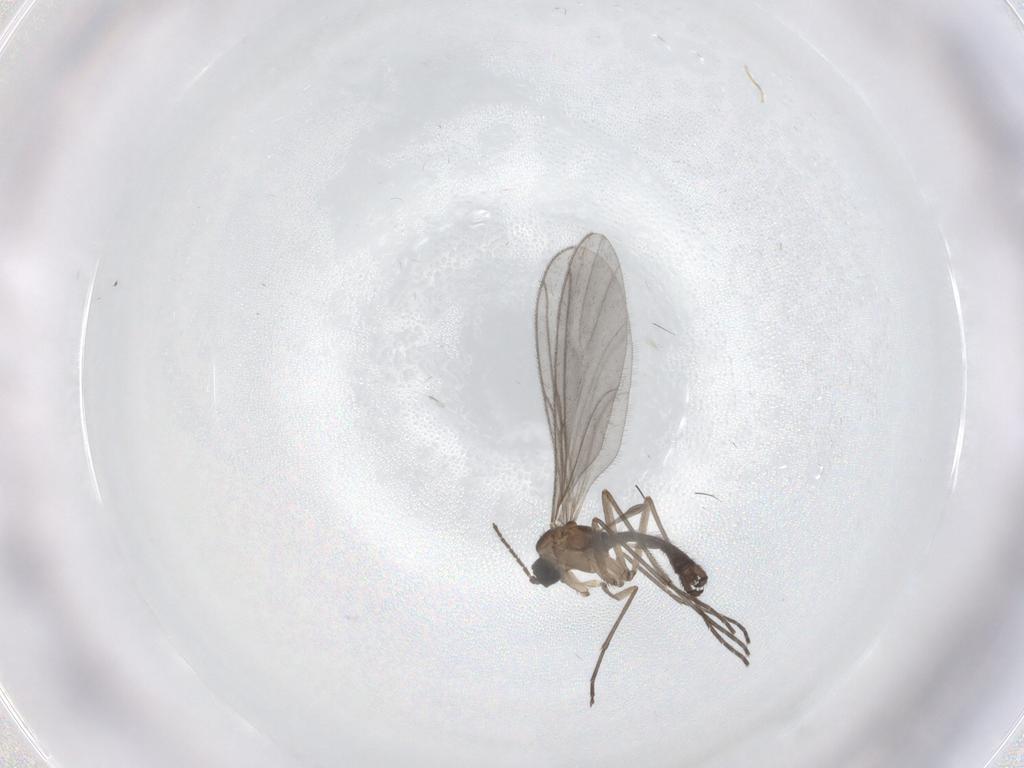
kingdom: Animalia
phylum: Arthropoda
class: Insecta
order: Diptera
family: Sciaridae
